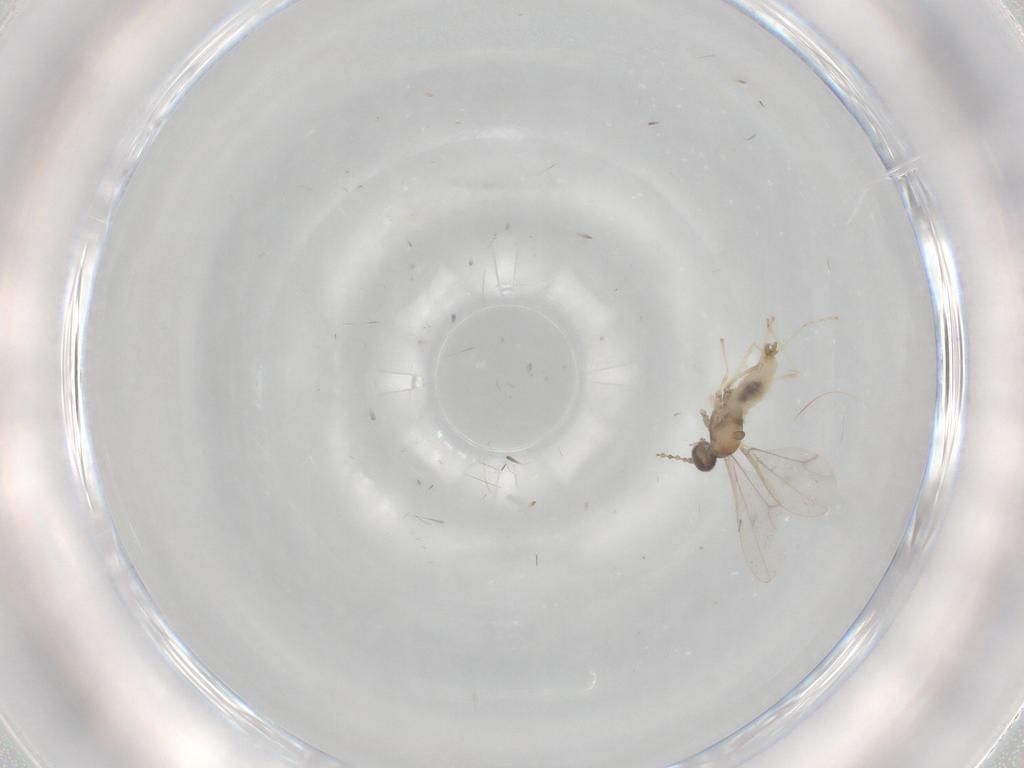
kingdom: Animalia
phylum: Arthropoda
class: Insecta
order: Diptera
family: Cecidomyiidae
